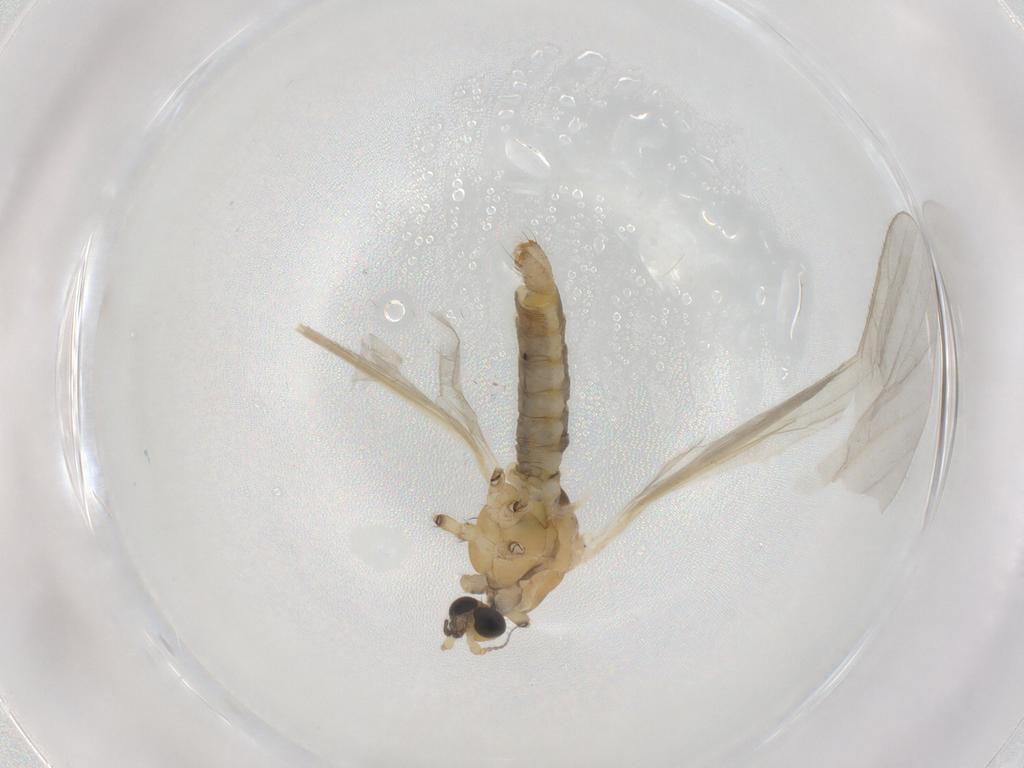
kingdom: Animalia
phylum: Arthropoda
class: Insecta
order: Diptera
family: Limoniidae
